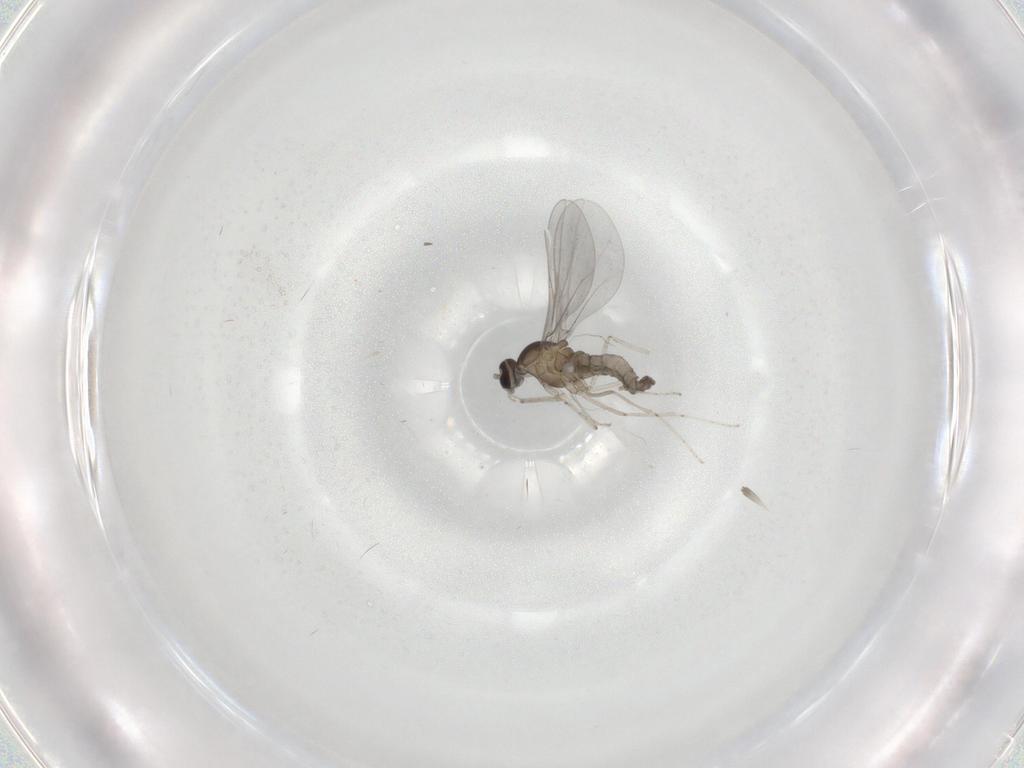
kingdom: Animalia
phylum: Arthropoda
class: Insecta
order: Diptera
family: Cecidomyiidae
